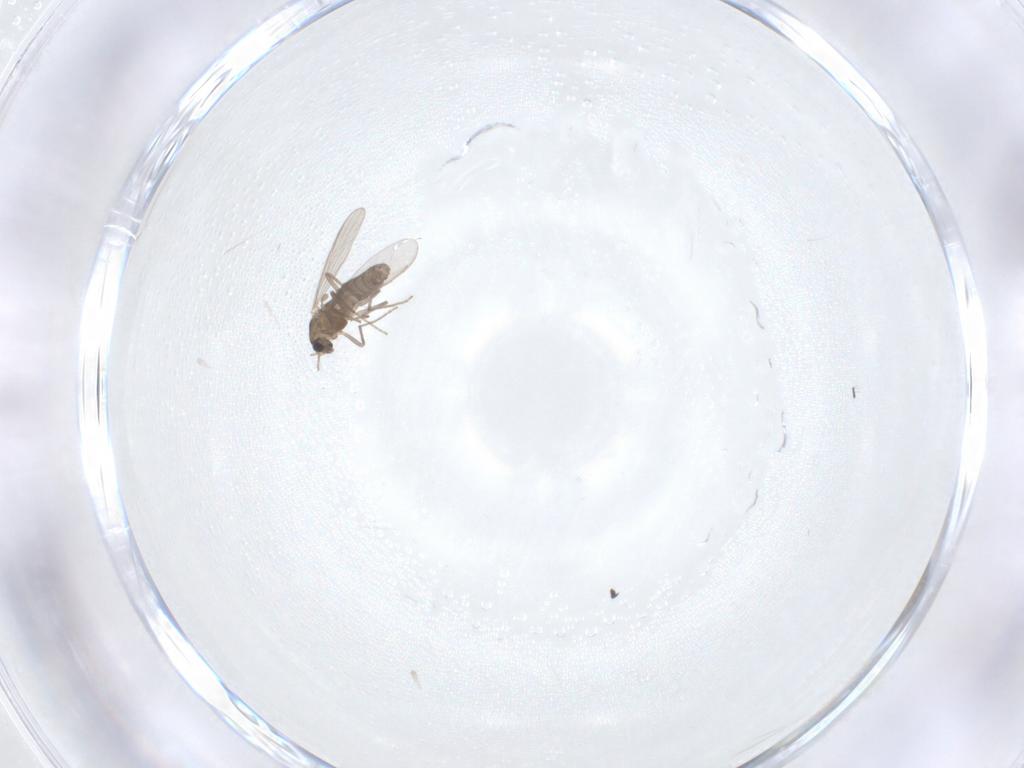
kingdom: Animalia
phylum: Arthropoda
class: Insecta
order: Diptera
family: Chironomidae
